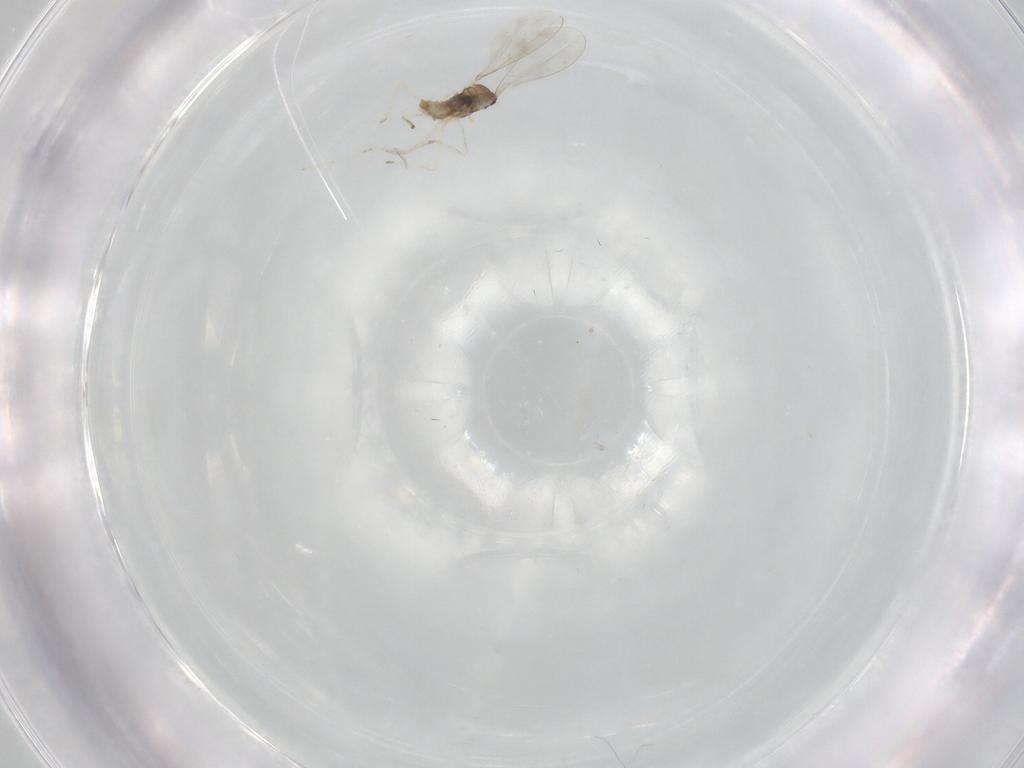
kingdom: Animalia
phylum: Arthropoda
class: Insecta
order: Diptera
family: Chironomidae
